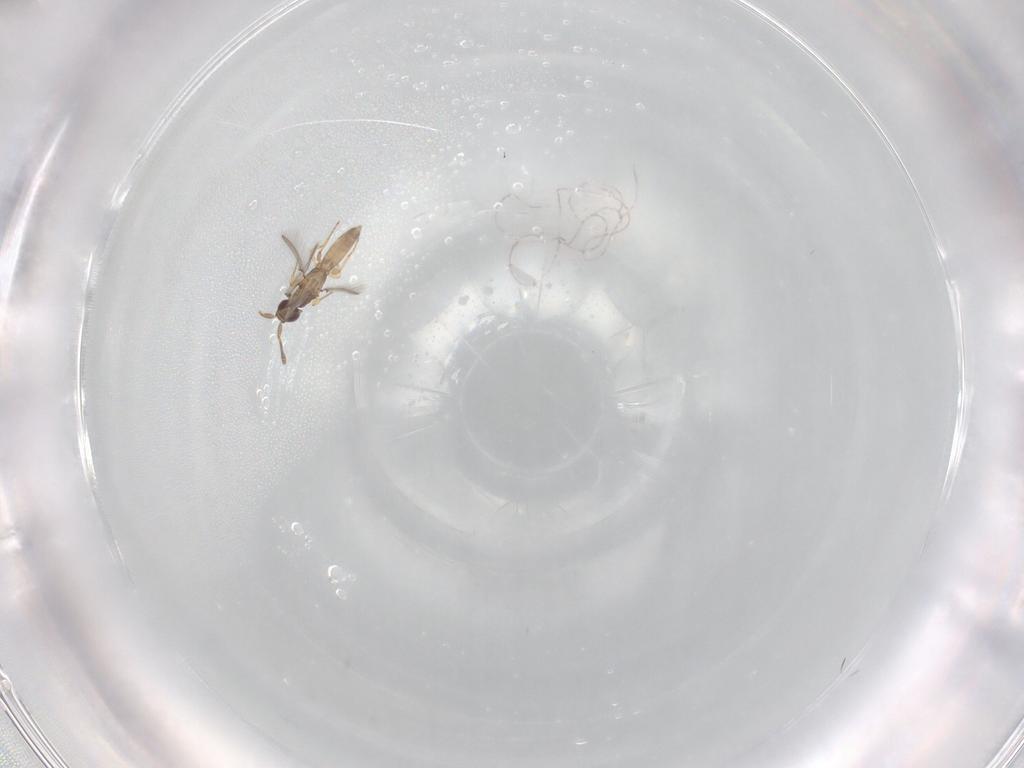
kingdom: Animalia
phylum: Arthropoda
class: Insecta
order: Hymenoptera
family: Mymaridae
